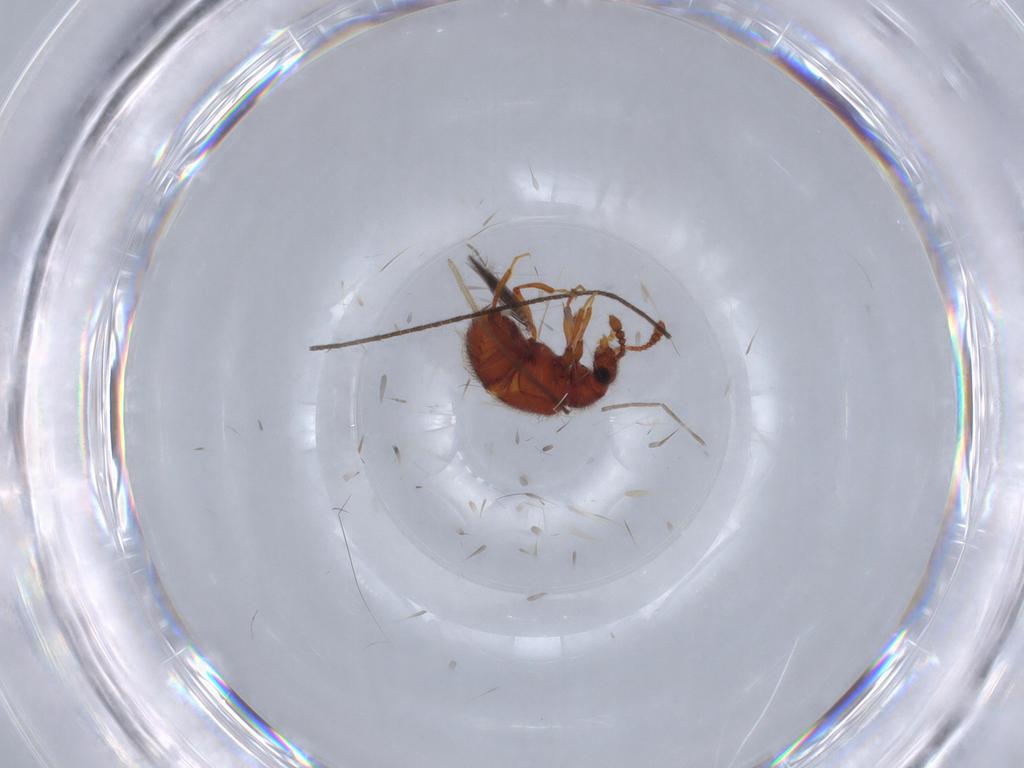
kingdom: Animalia
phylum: Arthropoda
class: Insecta
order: Coleoptera
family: Staphylinidae
